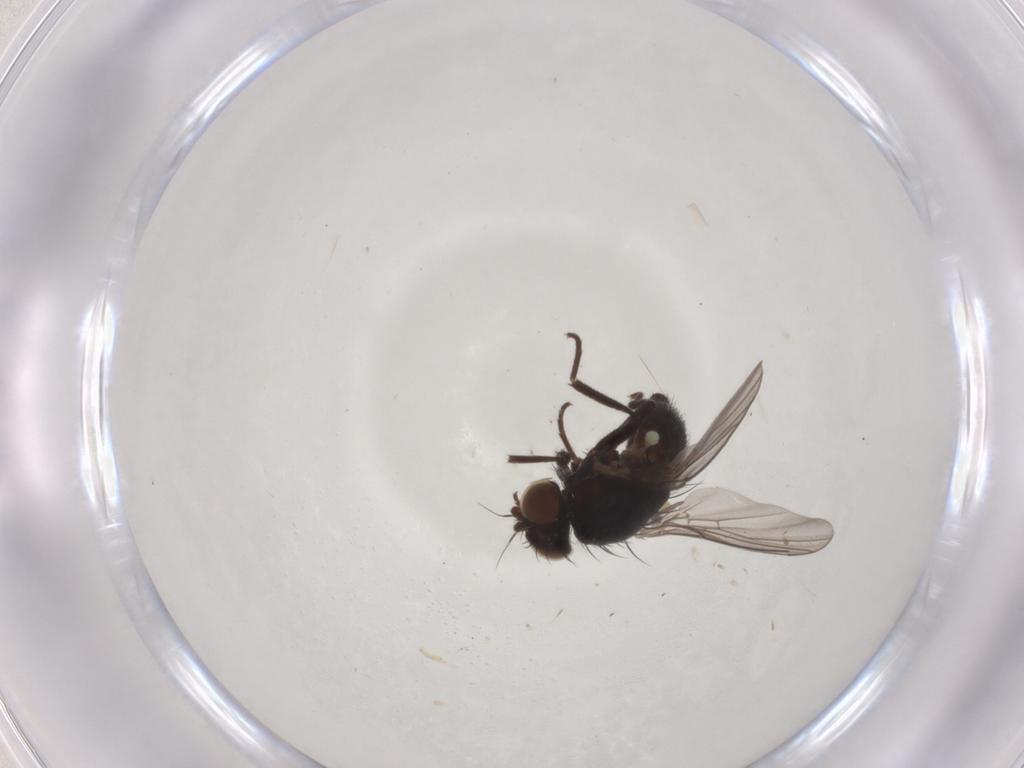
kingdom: Animalia
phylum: Arthropoda
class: Insecta
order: Diptera
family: Agromyzidae
